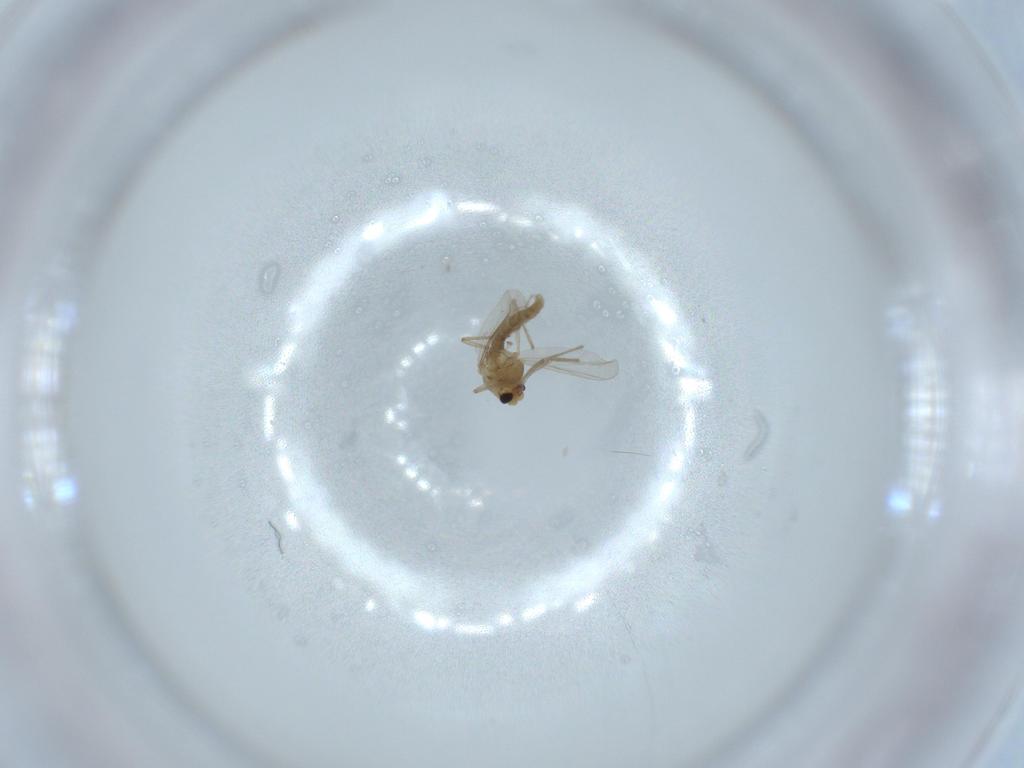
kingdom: Animalia
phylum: Arthropoda
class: Insecta
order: Diptera
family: Chironomidae
